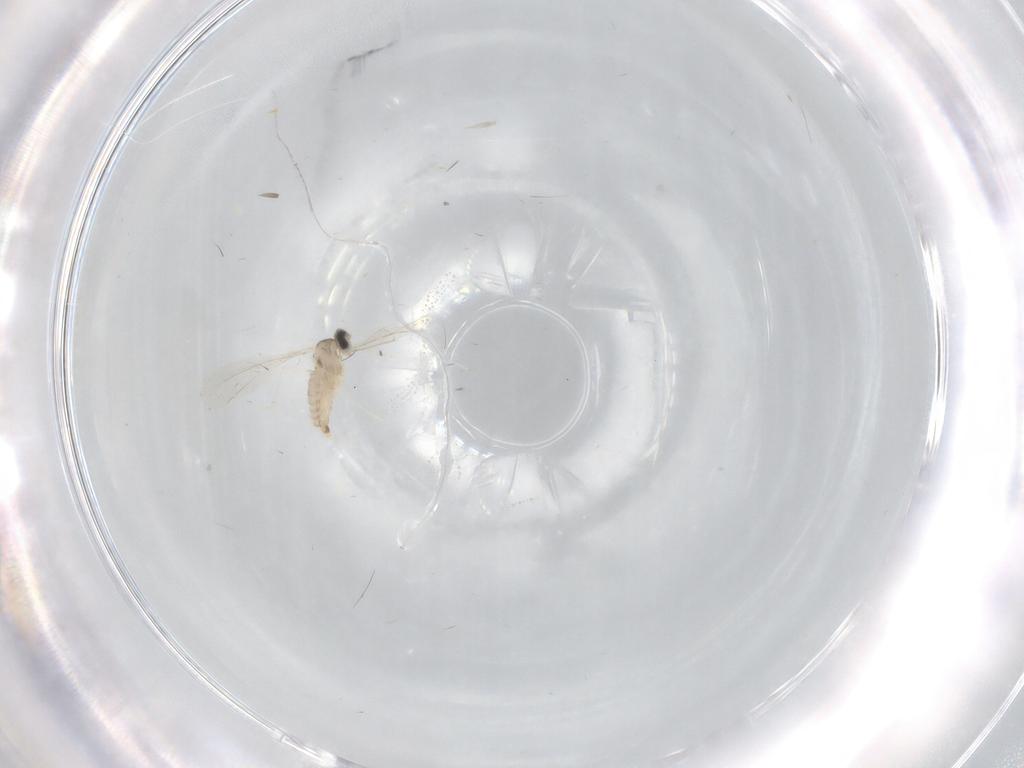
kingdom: Animalia
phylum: Arthropoda
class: Insecta
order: Diptera
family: Cecidomyiidae
